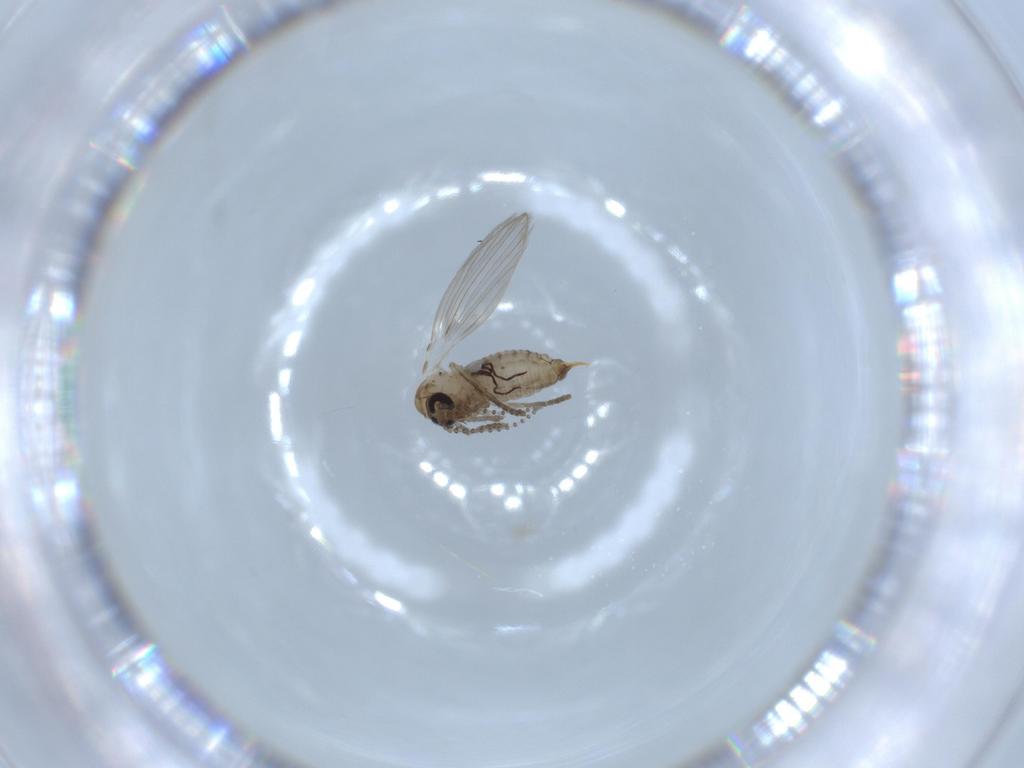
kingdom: Animalia
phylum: Arthropoda
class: Insecta
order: Diptera
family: Psychodidae
